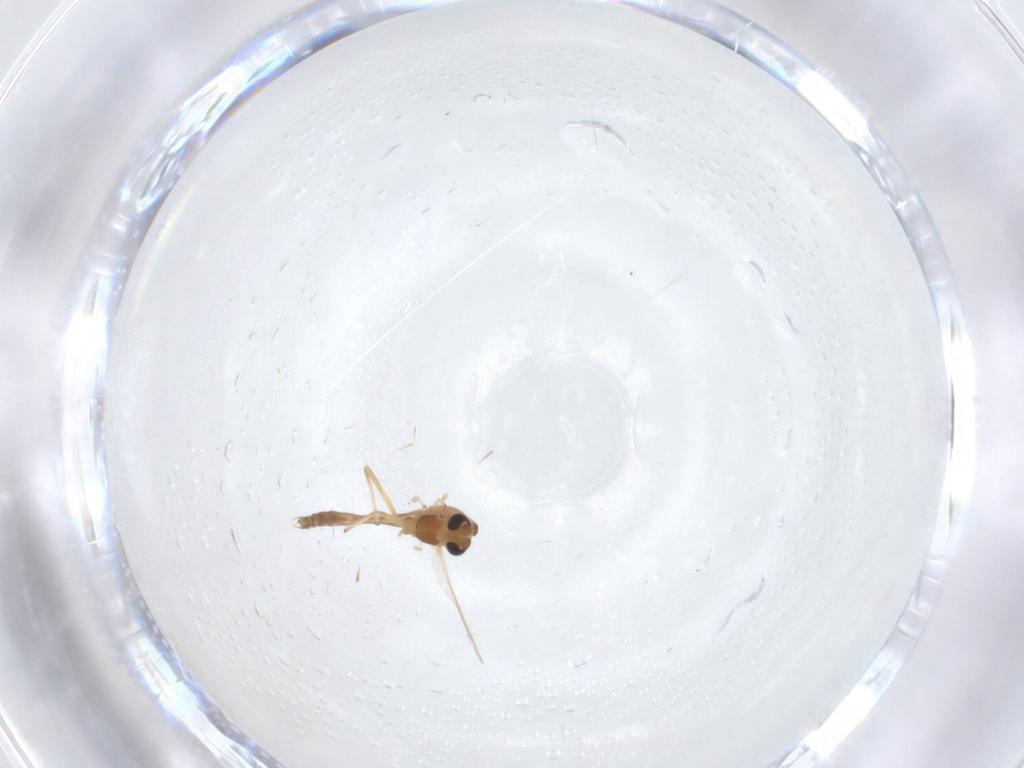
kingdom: Animalia
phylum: Arthropoda
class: Insecta
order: Diptera
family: Chironomidae
